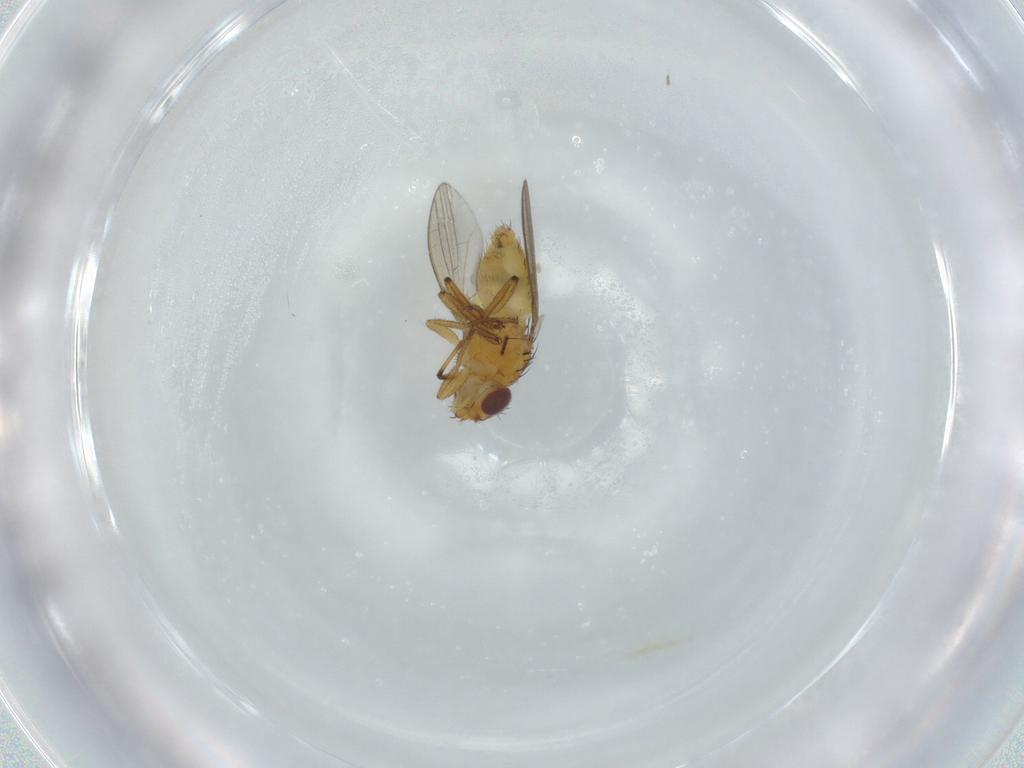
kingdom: Animalia
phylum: Arthropoda
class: Insecta
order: Diptera
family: Milichiidae
